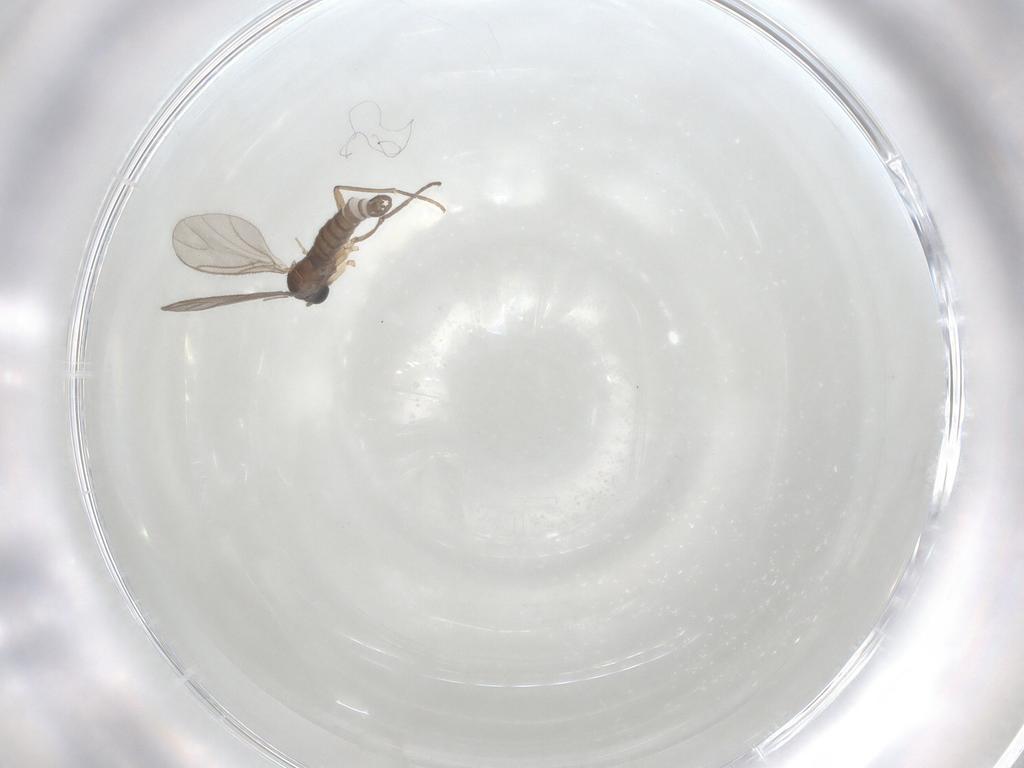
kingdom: Animalia
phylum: Arthropoda
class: Insecta
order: Diptera
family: Sciaridae
